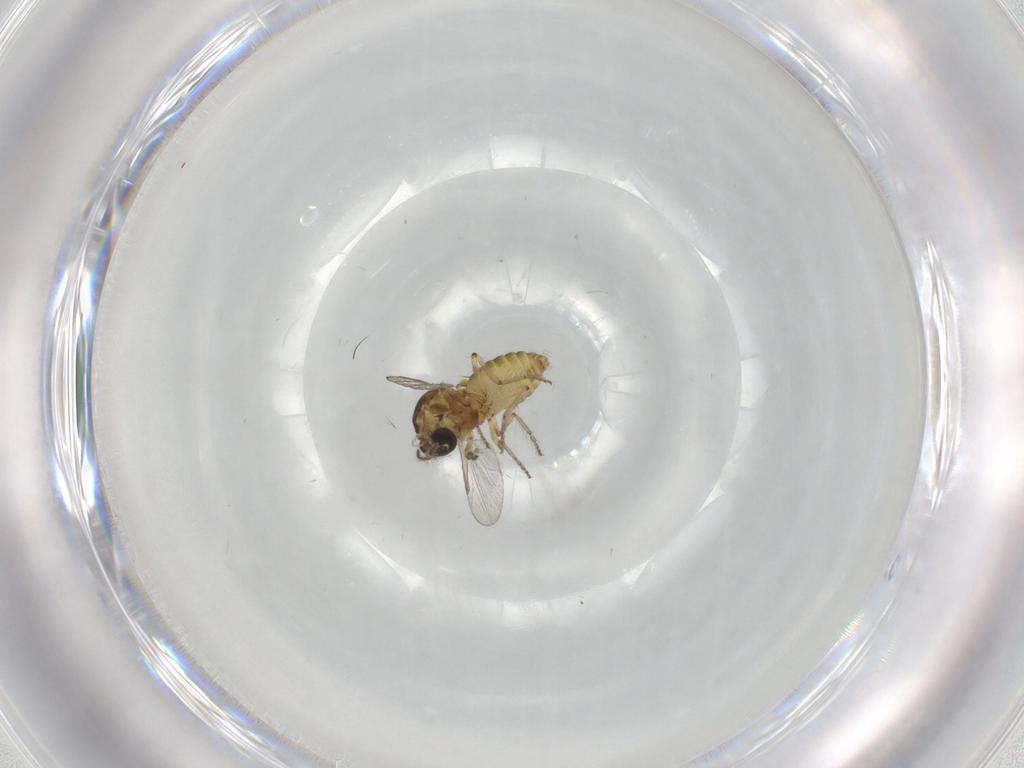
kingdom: Animalia
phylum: Arthropoda
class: Insecta
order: Diptera
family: Ceratopogonidae
